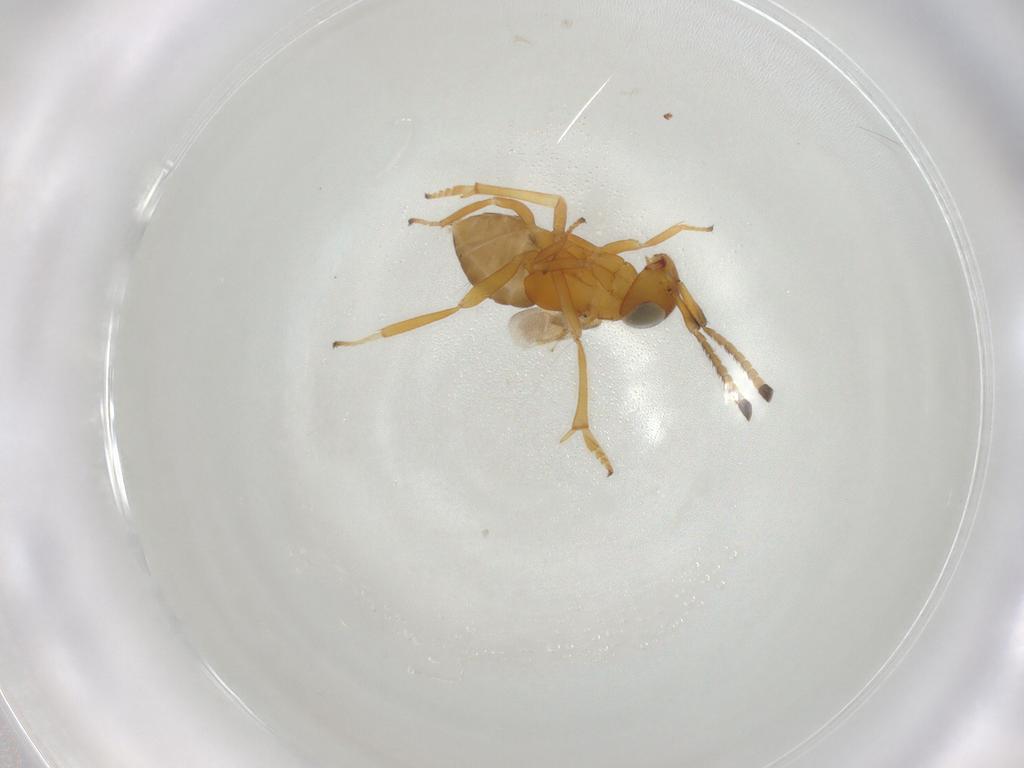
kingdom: Animalia
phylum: Arthropoda
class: Insecta
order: Hymenoptera
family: Encyrtidae
